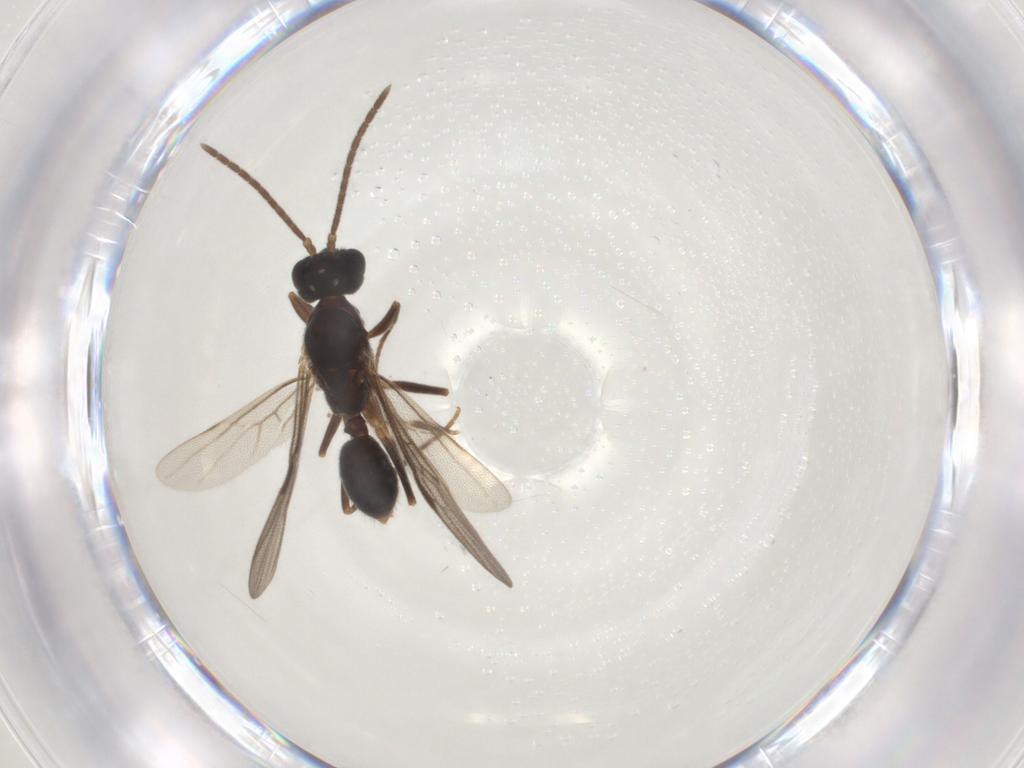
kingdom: Animalia
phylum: Arthropoda
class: Insecta
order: Hymenoptera
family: Formicidae
